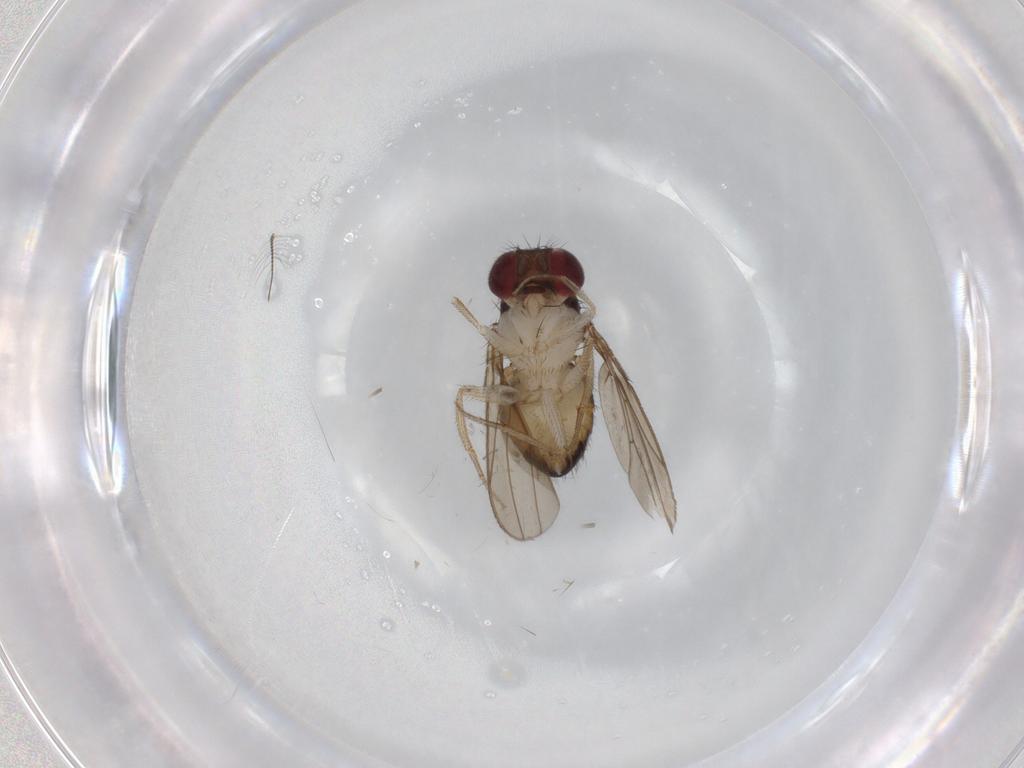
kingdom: Animalia
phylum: Arthropoda
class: Insecta
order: Diptera
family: Drosophilidae
